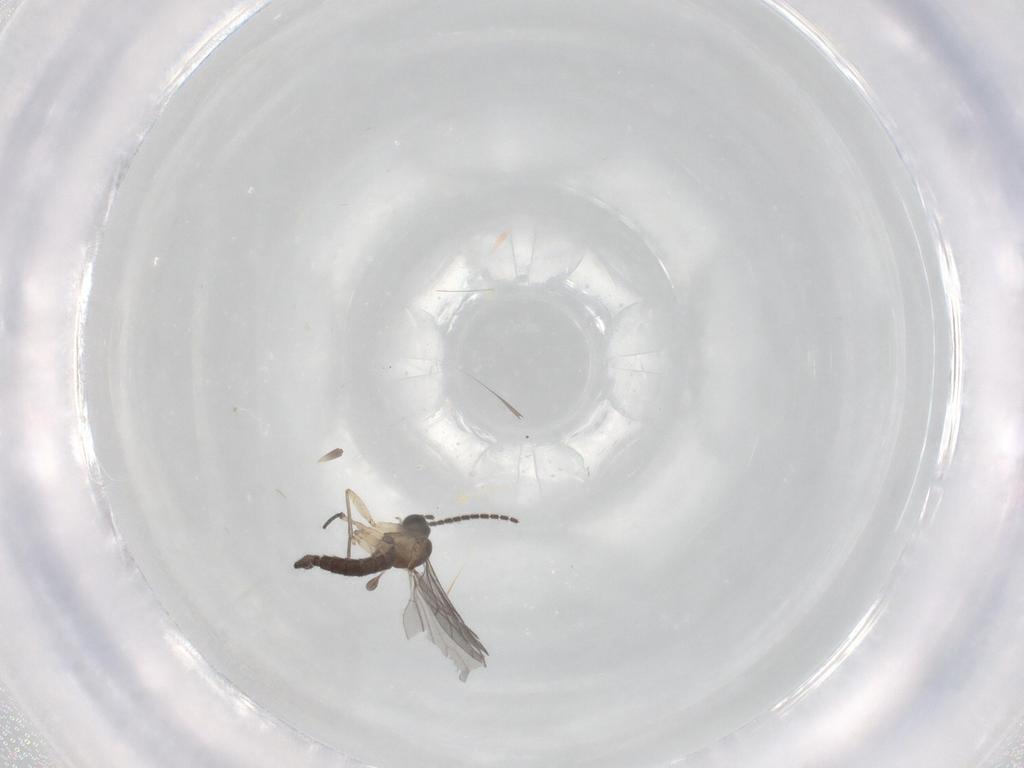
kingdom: Animalia
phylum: Arthropoda
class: Insecta
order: Diptera
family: Sciaridae
